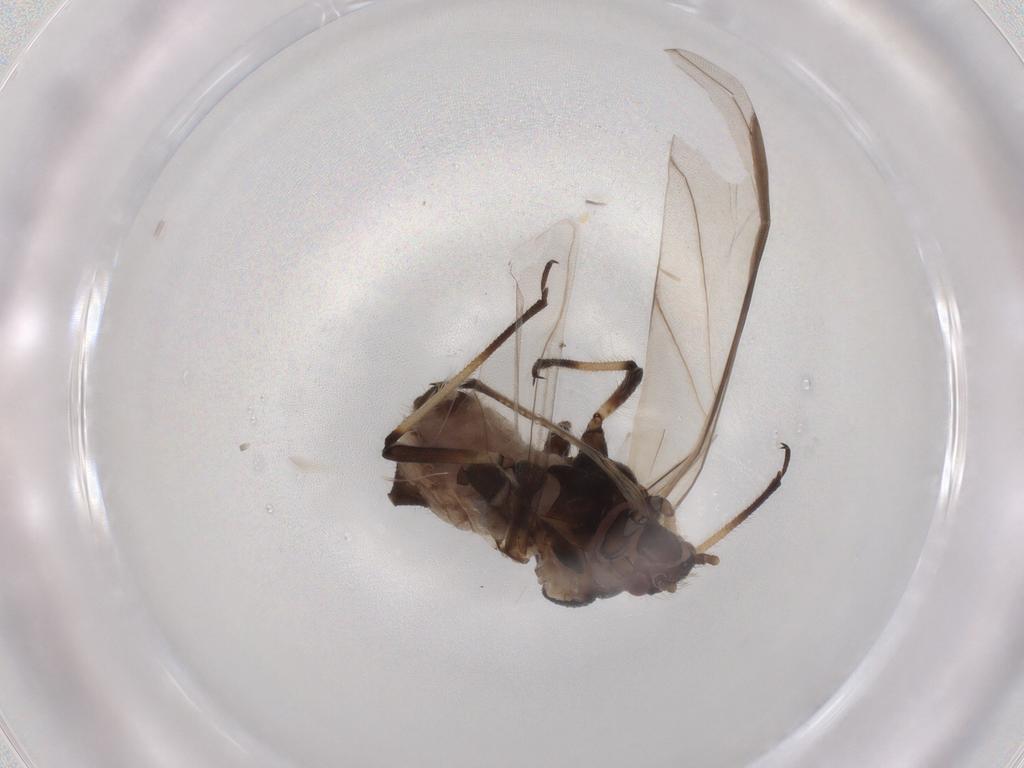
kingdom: Animalia
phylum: Arthropoda
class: Insecta
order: Hemiptera
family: Aphididae
